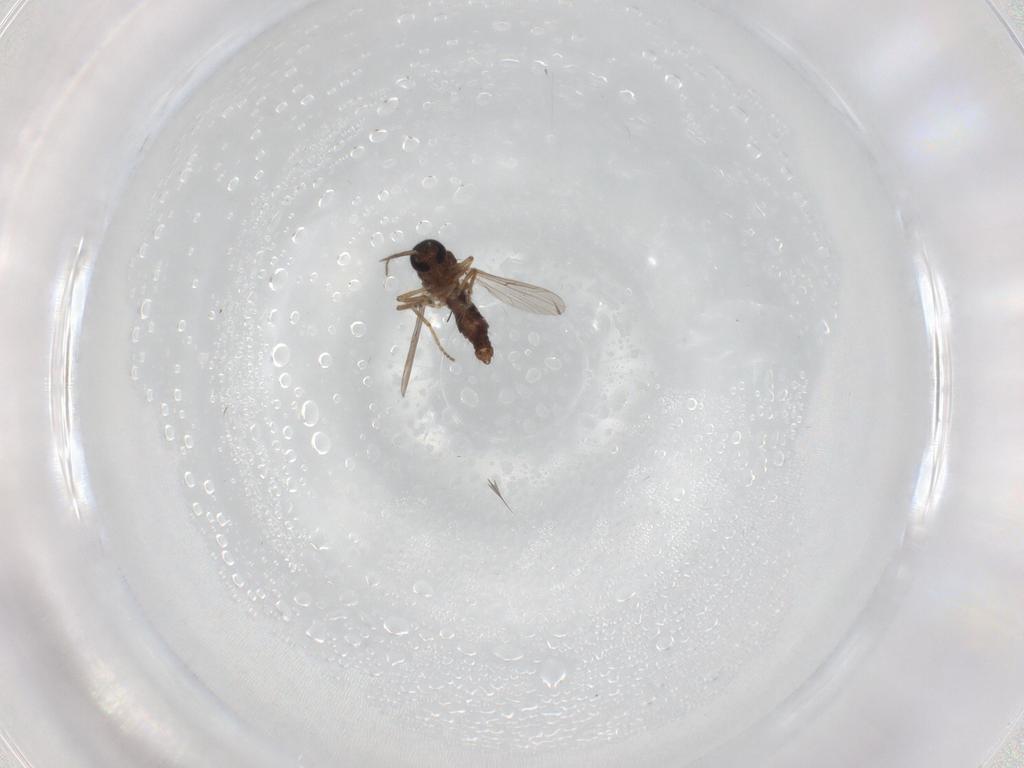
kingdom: Animalia
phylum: Arthropoda
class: Insecta
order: Diptera
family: Ceratopogonidae
